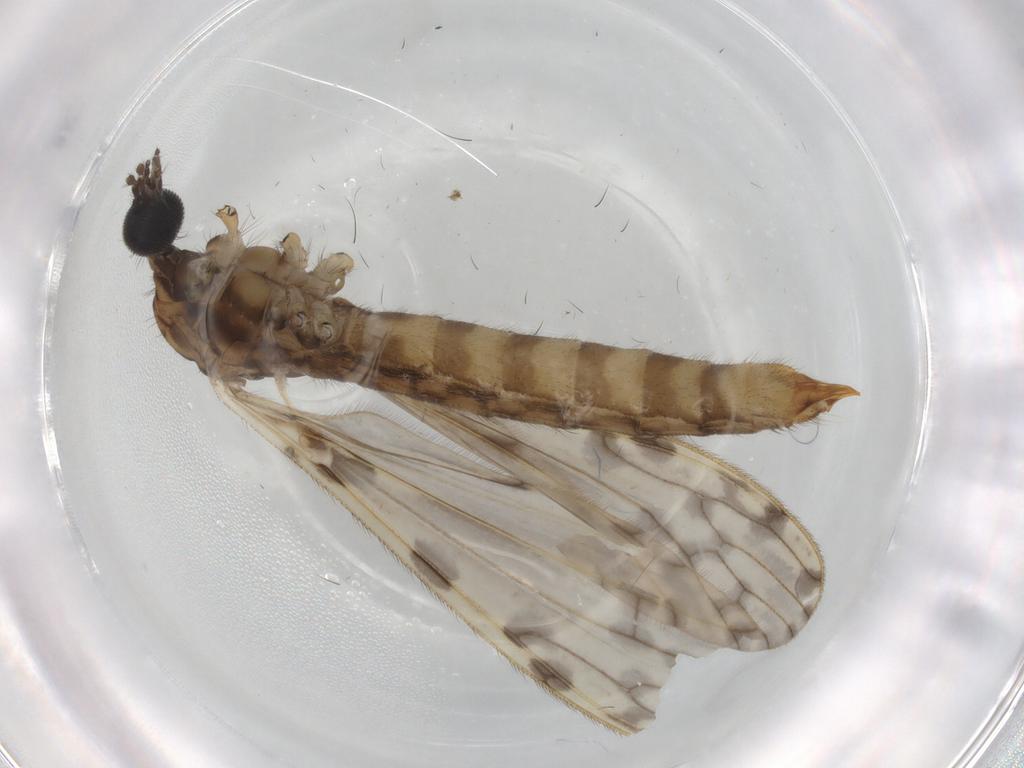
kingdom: Animalia
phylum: Arthropoda
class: Insecta
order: Diptera
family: Limoniidae
